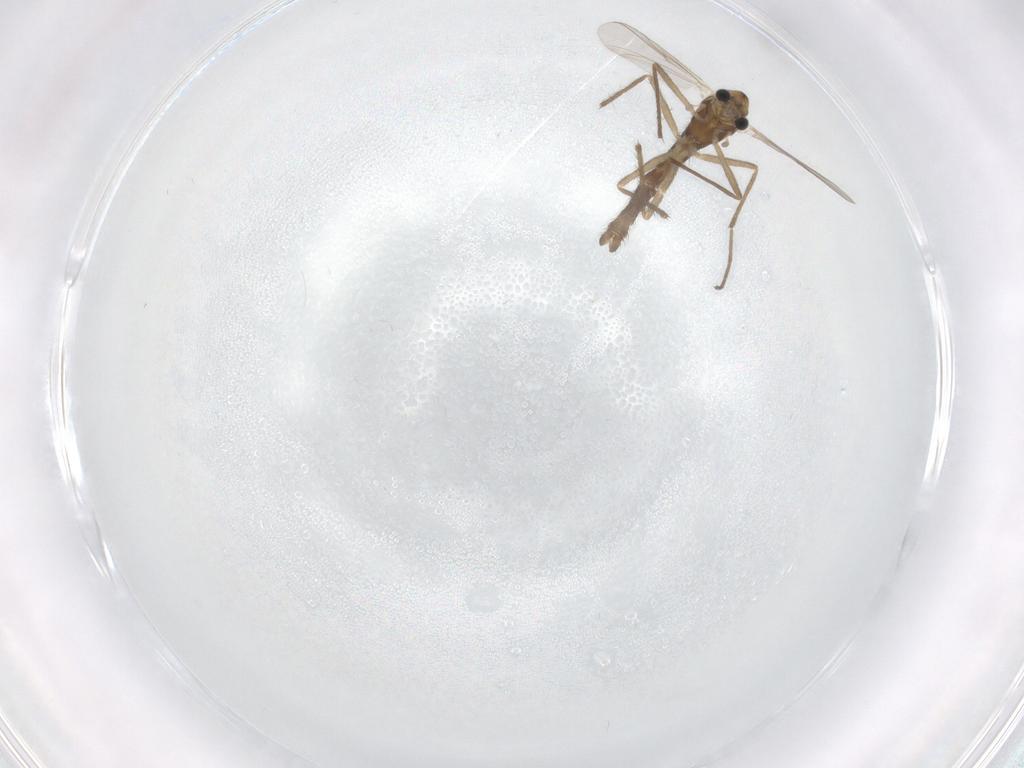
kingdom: Animalia
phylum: Arthropoda
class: Insecta
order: Diptera
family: Chironomidae
